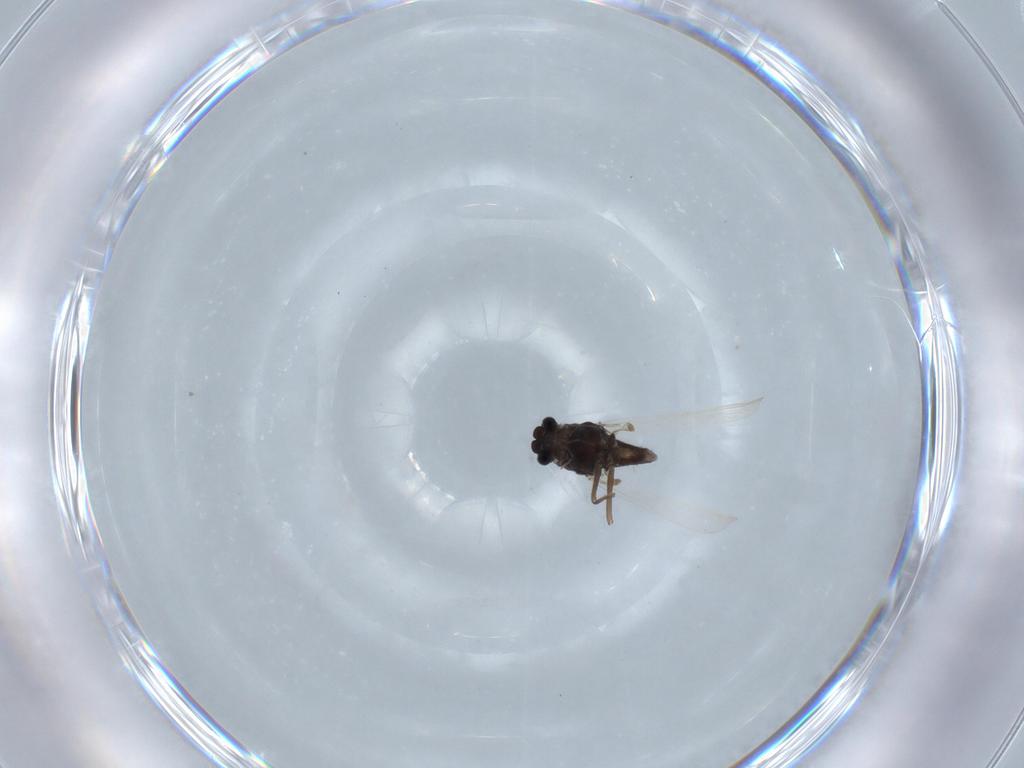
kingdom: Animalia
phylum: Arthropoda
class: Insecta
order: Diptera
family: Chironomidae
